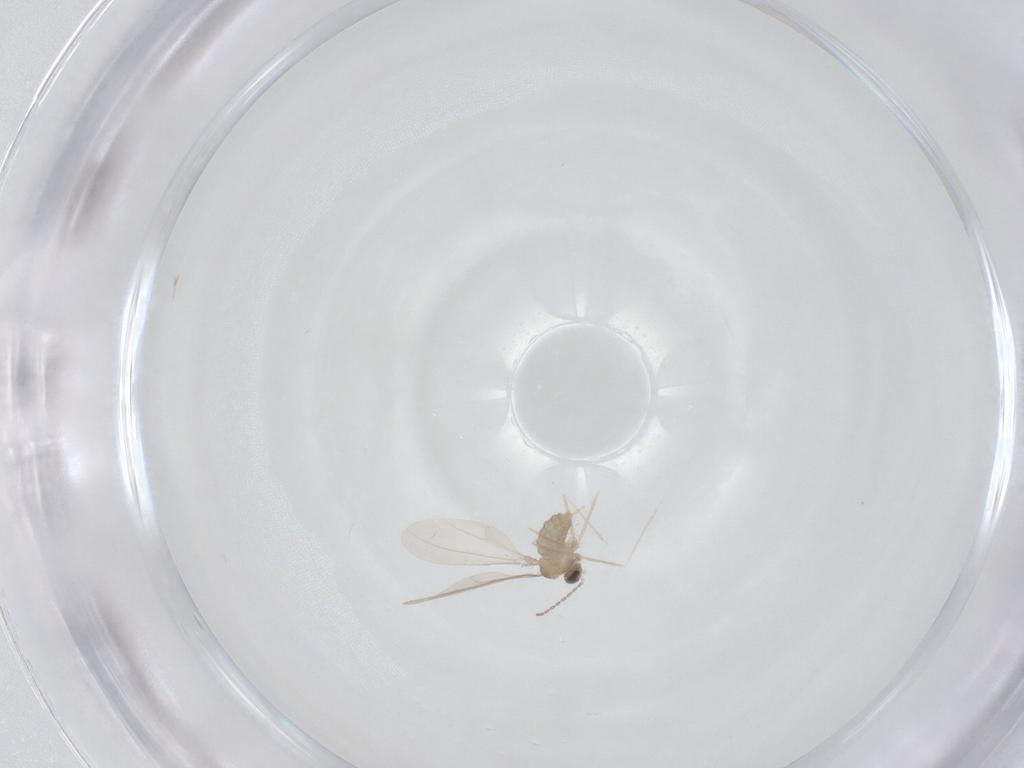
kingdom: Animalia
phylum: Arthropoda
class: Insecta
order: Diptera
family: Cecidomyiidae
